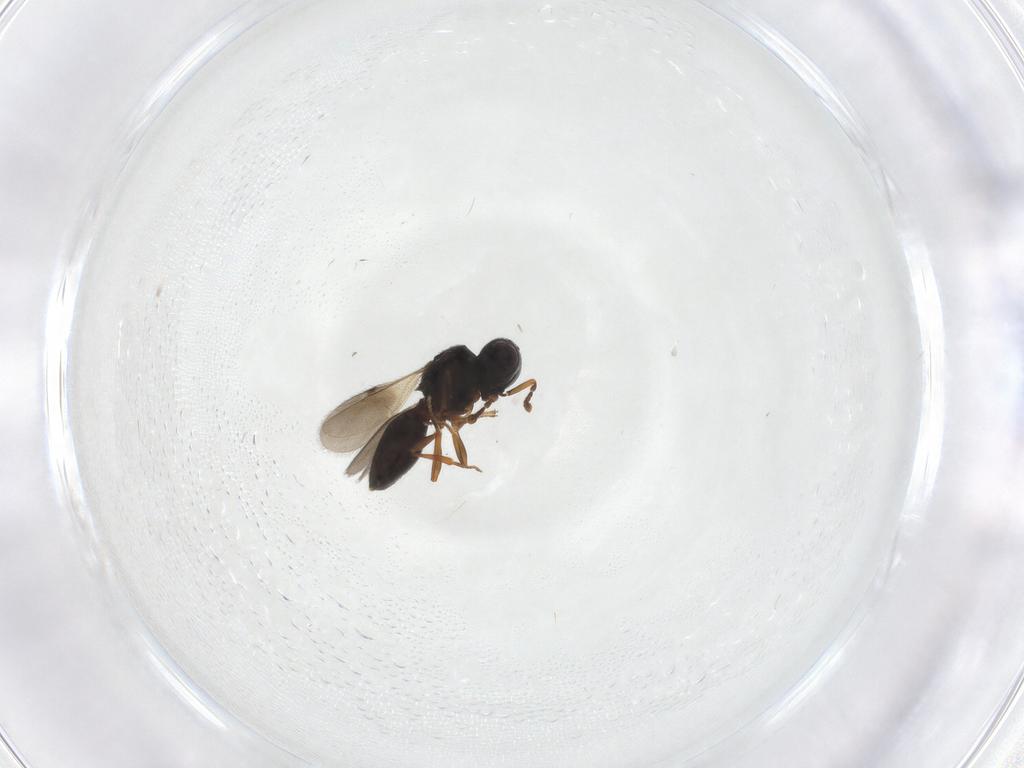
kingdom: Animalia
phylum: Arthropoda
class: Insecta
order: Hymenoptera
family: Scelionidae
